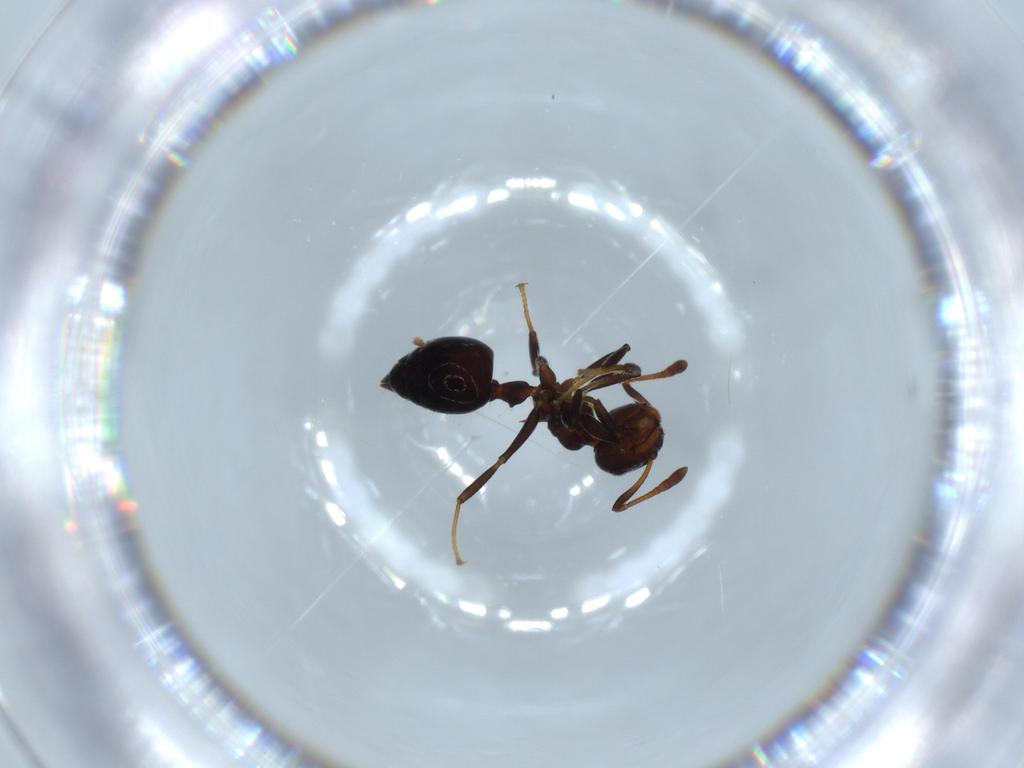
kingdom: Animalia
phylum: Arthropoda
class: Insecta
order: Hymenoptera
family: Formicidae
